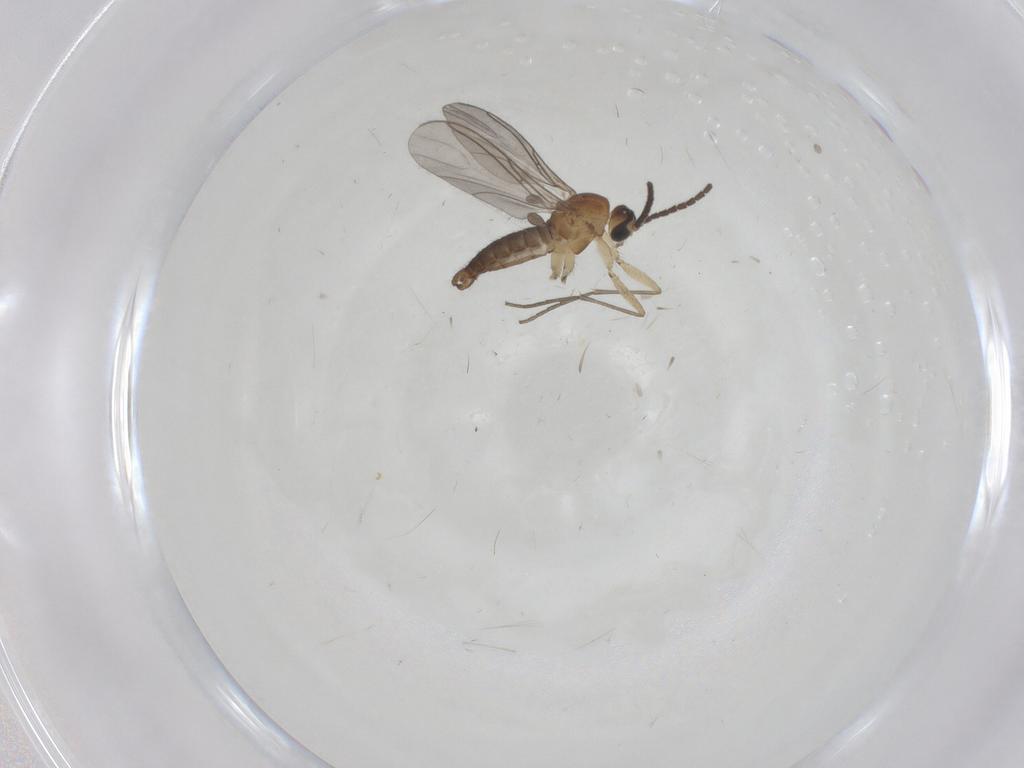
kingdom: Animalia
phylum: Arthropoda
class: Insecta
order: Diptera
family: Sciaridae
